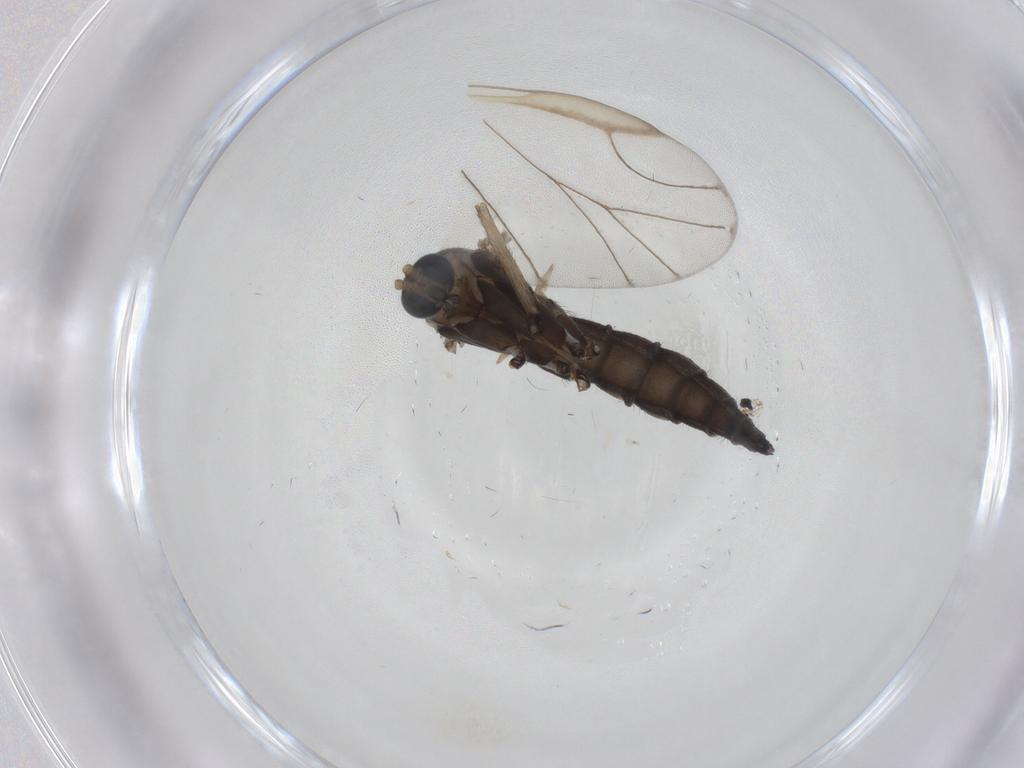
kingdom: Animalia
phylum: Arthropoda
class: Insecta
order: Diptera
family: Sciaridae
